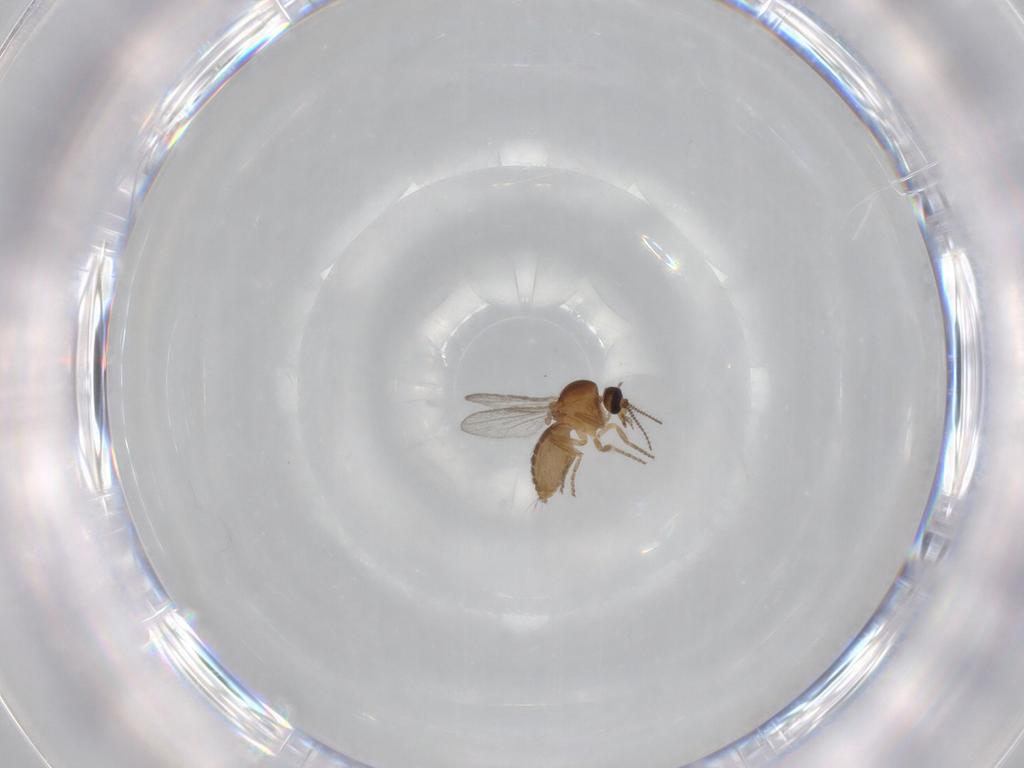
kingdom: Animalia
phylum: Arthropoda
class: Insecta
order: Diptera
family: Cecidomyiidae
